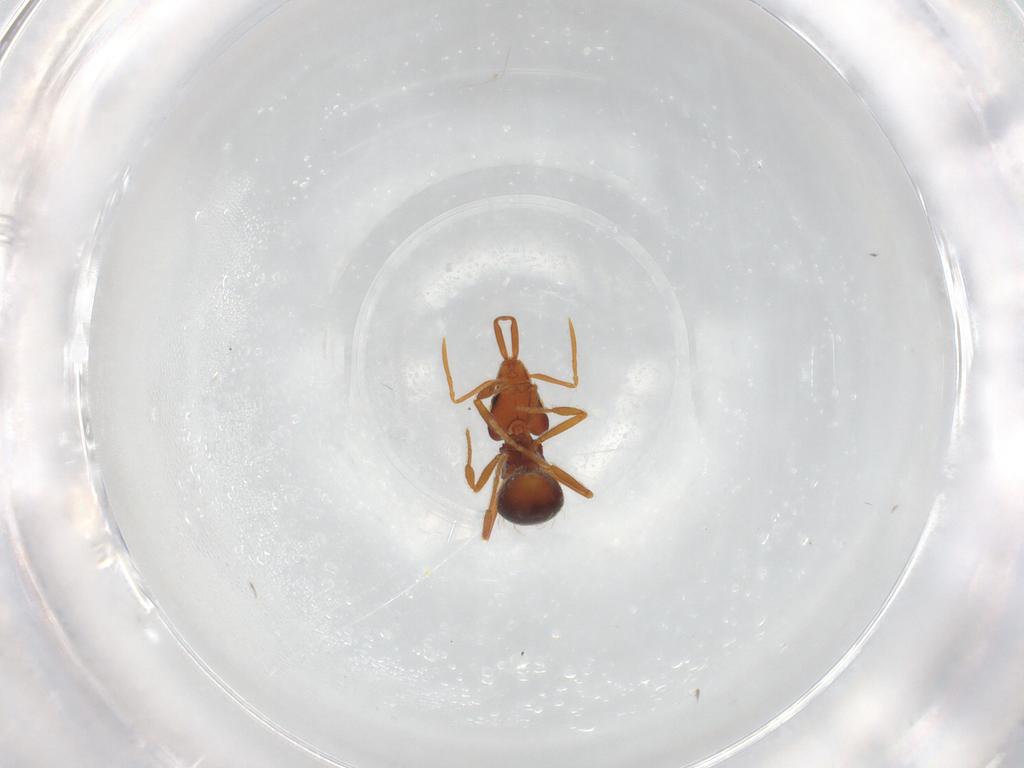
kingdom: Animalia
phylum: Arthropoda
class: Insecta
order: Hymenoptera
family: Formicidae
